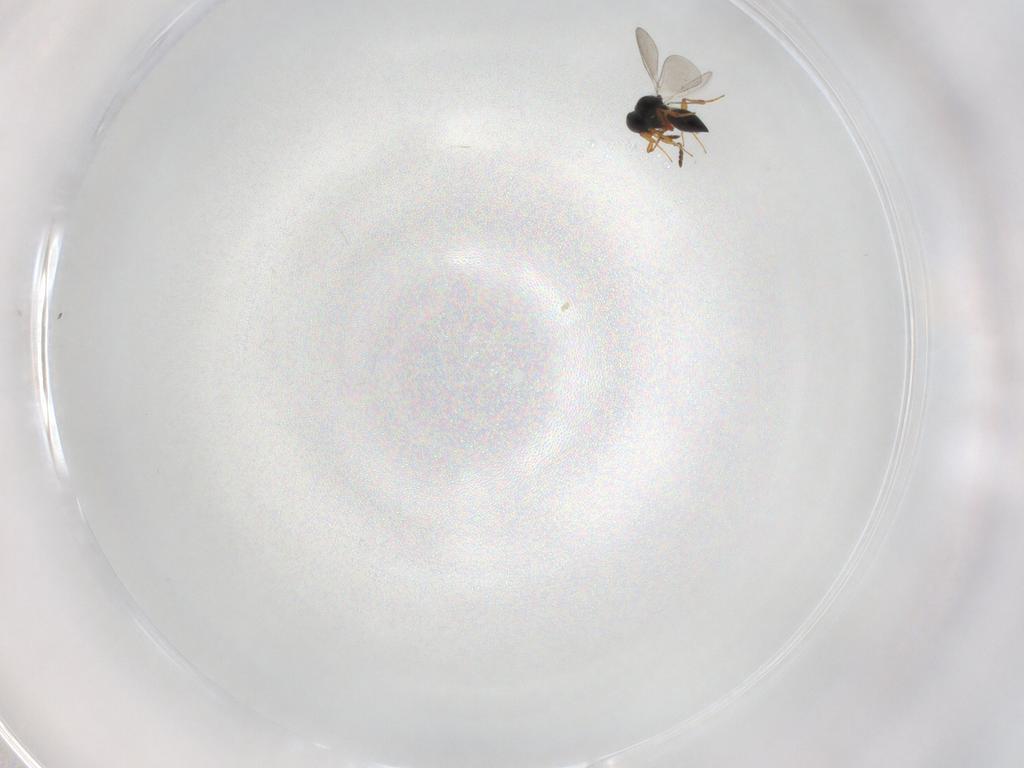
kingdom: Animalia
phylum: Arthropoda
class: Insecta
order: Hymenoptera
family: Platygastridae
